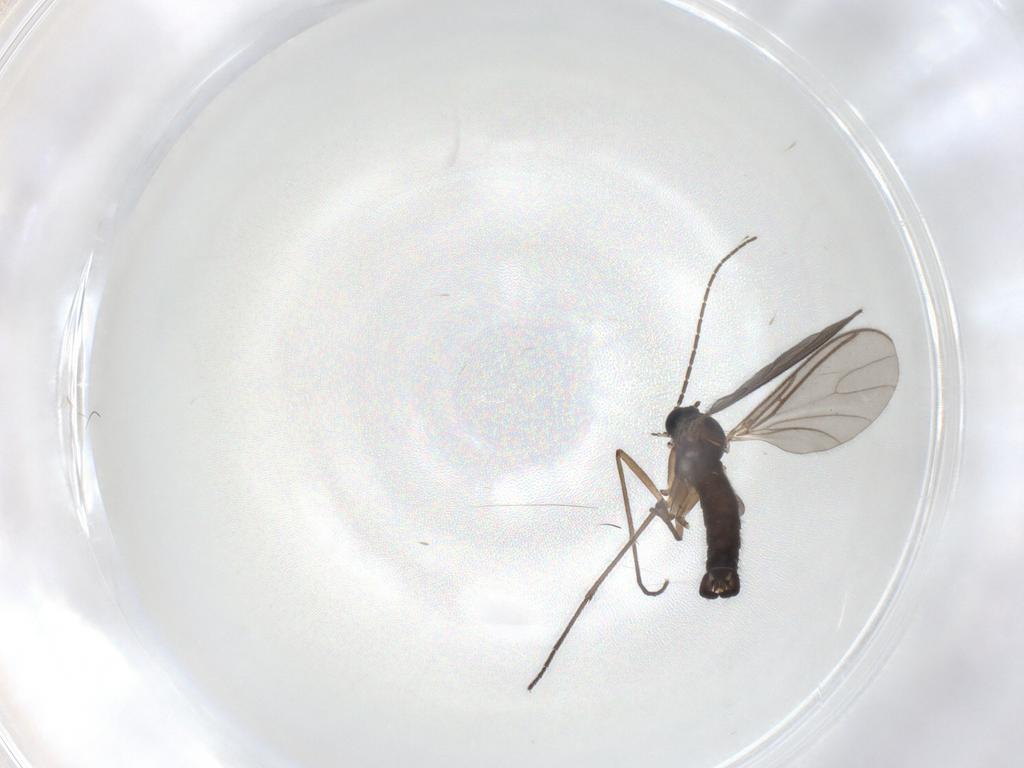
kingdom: Animalia
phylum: Arthropoda
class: Insecta
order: Diptera
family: Sciaridae
